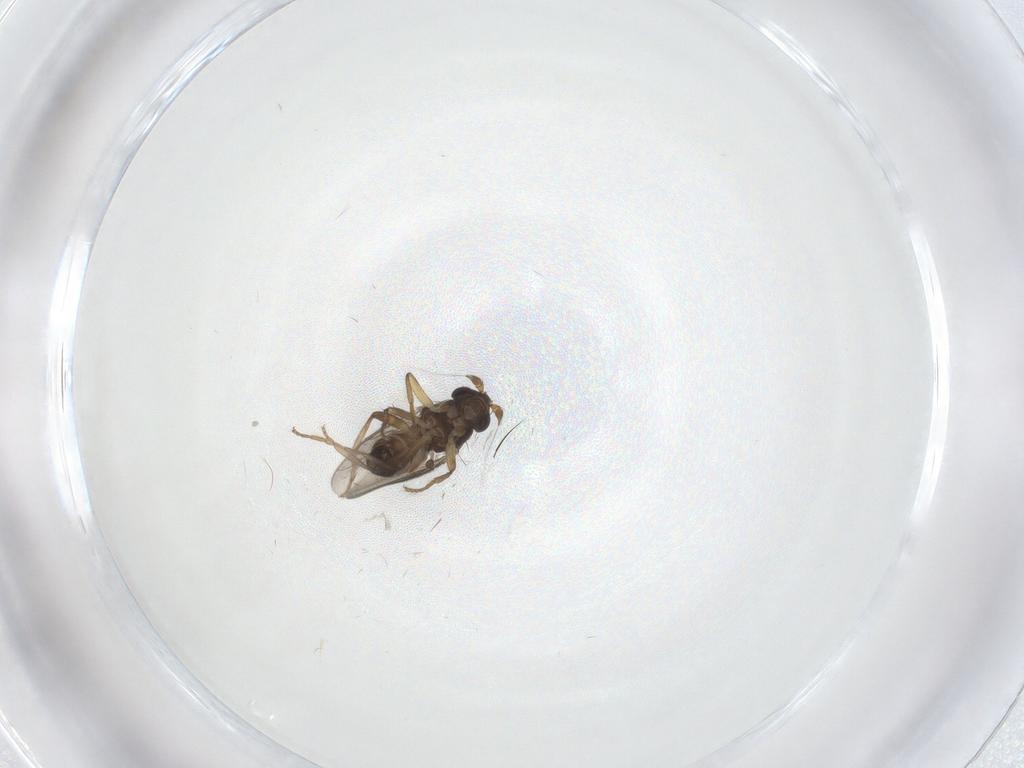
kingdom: Animalia
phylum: Arthropoda
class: Insecta
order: Diptera
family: Sphaeroceridae
